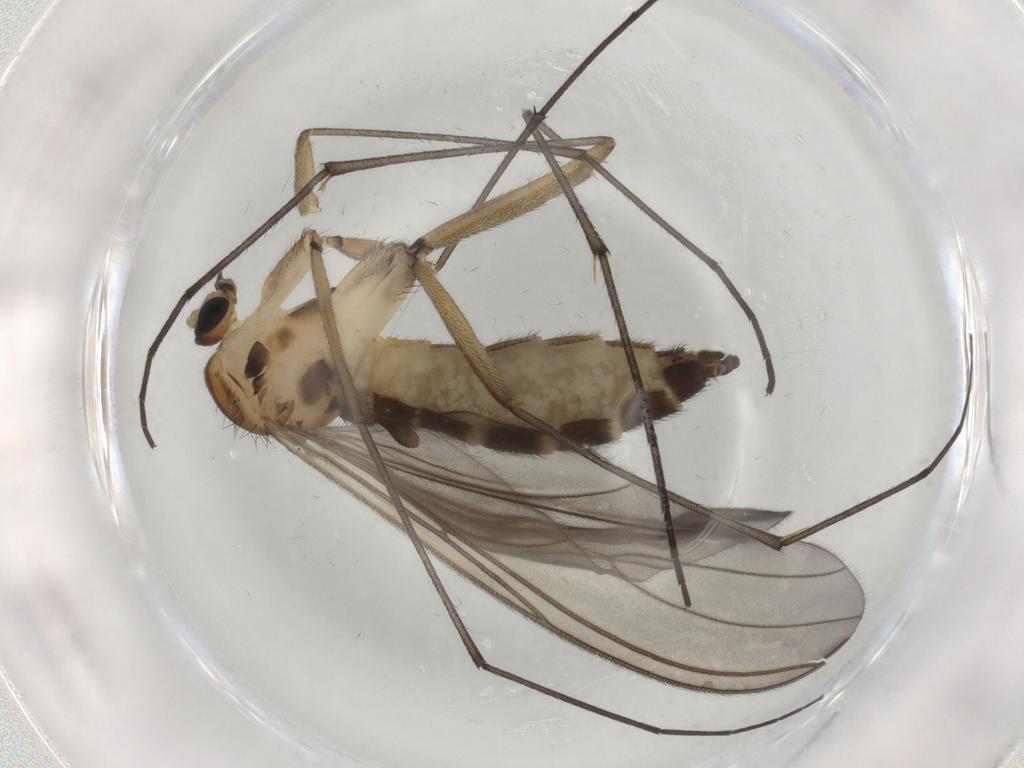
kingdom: Animalia
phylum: Arthropoda
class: Insecta
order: Diptera
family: Sciaridae
